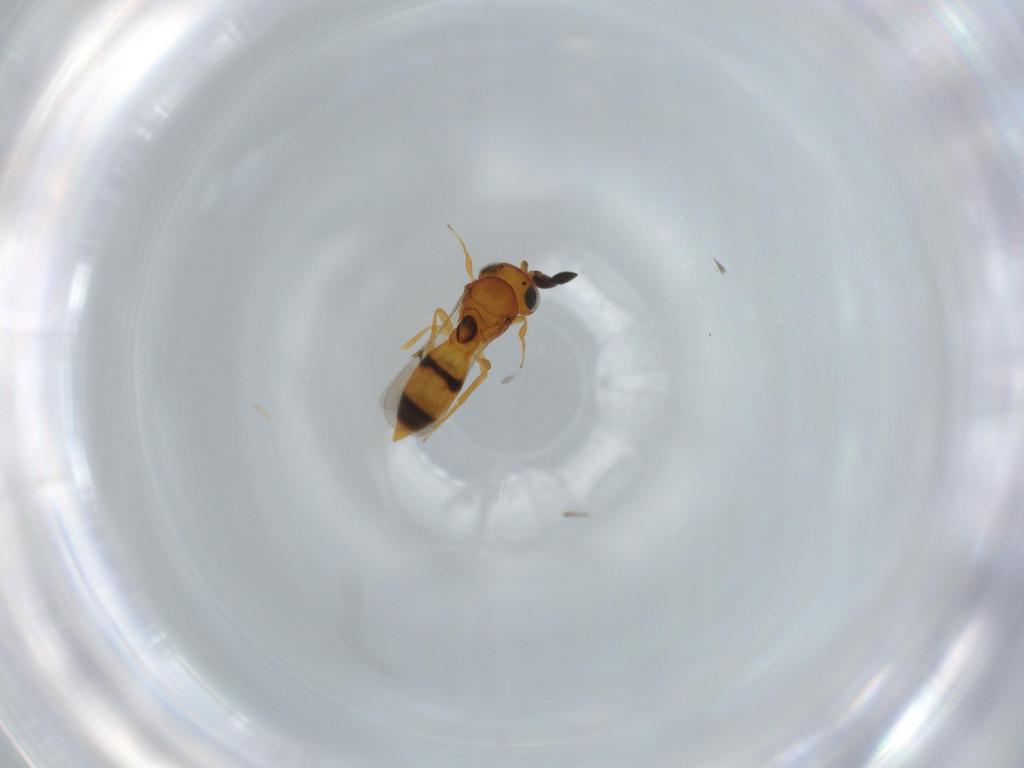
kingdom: Animalia
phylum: Arthropoda
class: Insecta
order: Hymenoptera
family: Scelionidae
